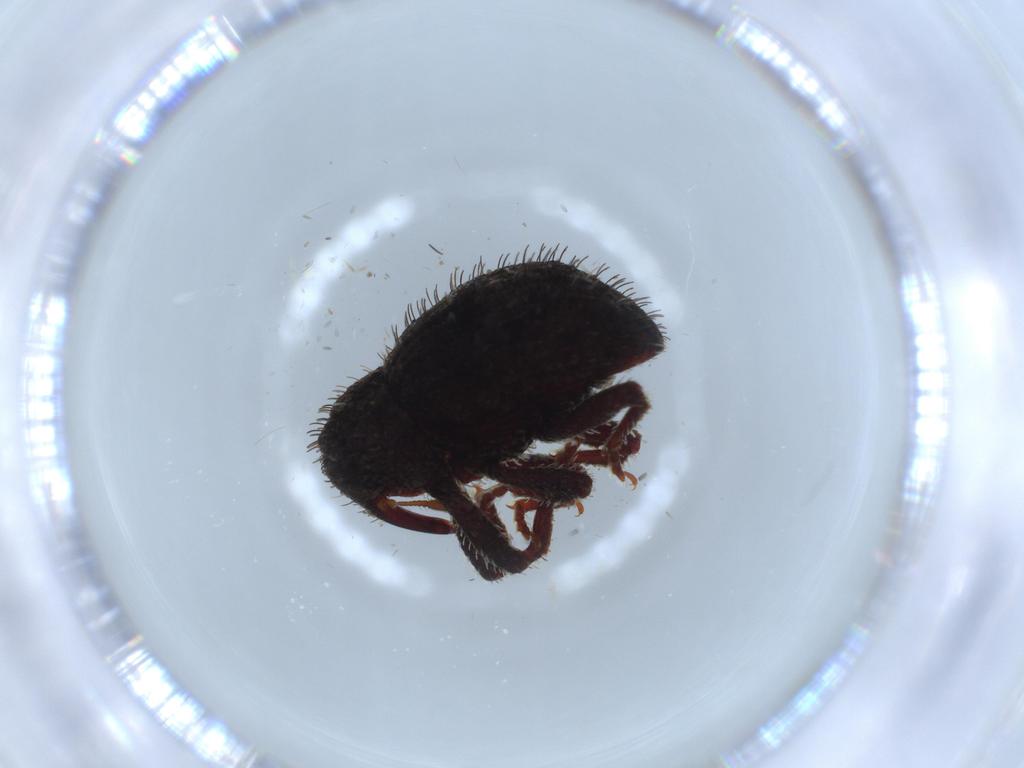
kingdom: Animalia
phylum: Arthropoda
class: Insecta
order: Coleoptera
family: Curculionidae
